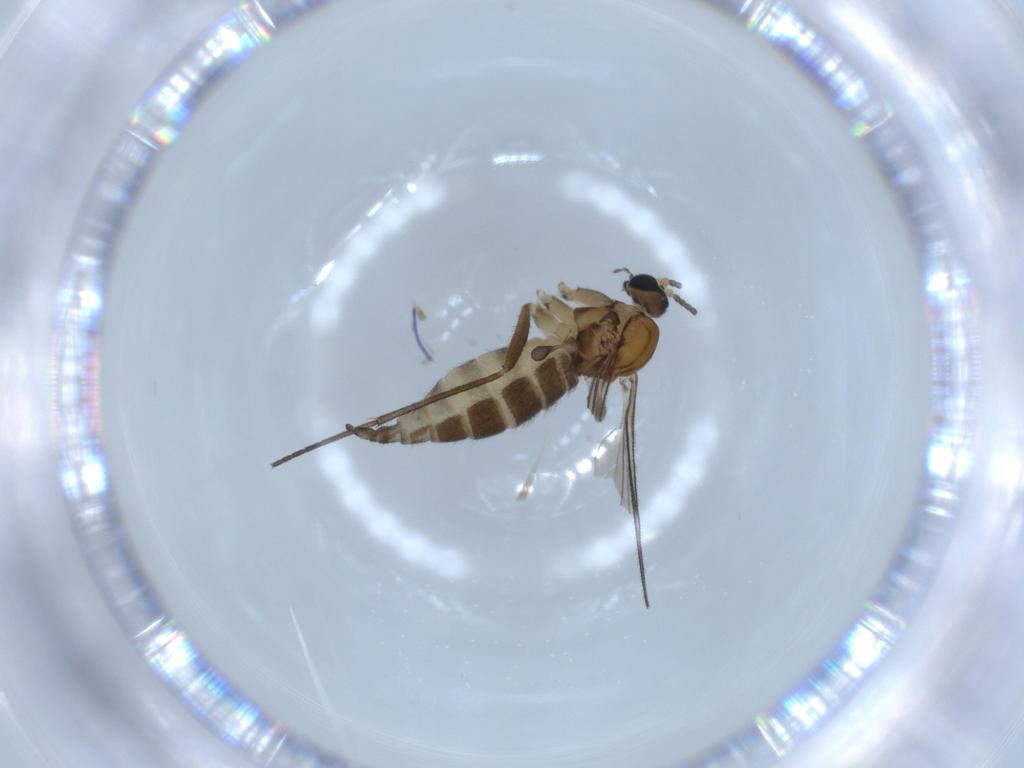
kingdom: Animalia
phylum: Arthropoda
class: Insecta
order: Diptera
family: Sciaridae
